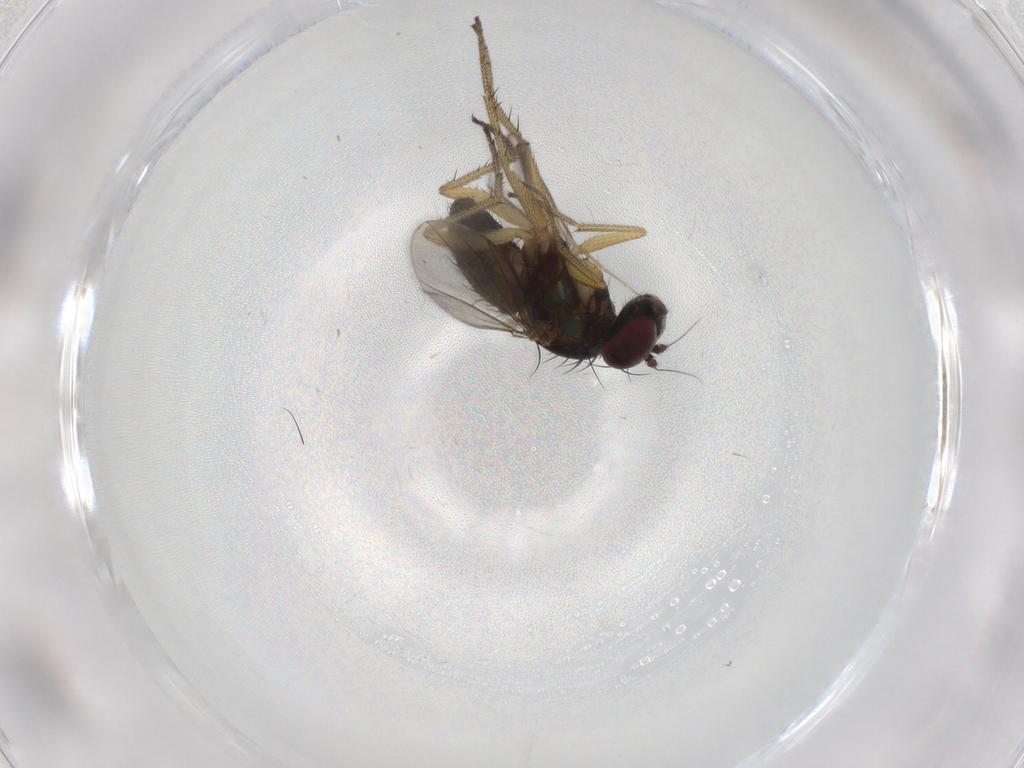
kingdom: Animalia
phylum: Arthropoda
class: Insecta
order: Diptera
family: Dolichopodidae
